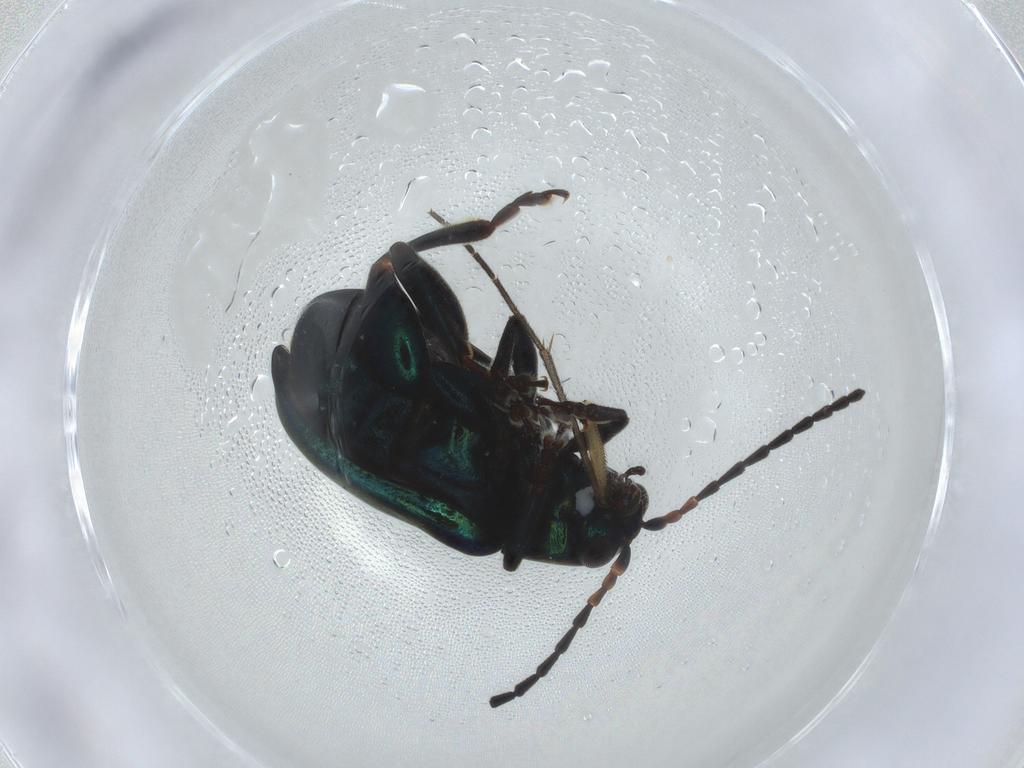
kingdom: Animalia
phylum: Arthropoda
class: Insecta
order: Coleoptera
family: Chrysomelidae
